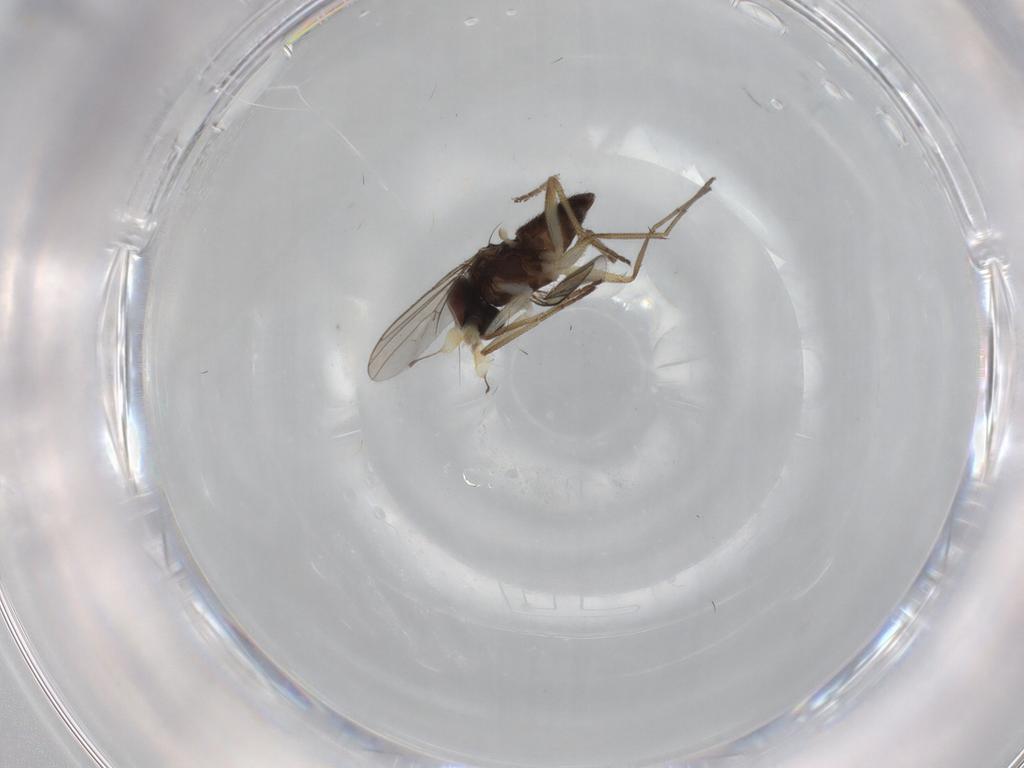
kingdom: Animalia
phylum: Arthropoda
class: Insecta
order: Diptera
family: Dolichopodidae
